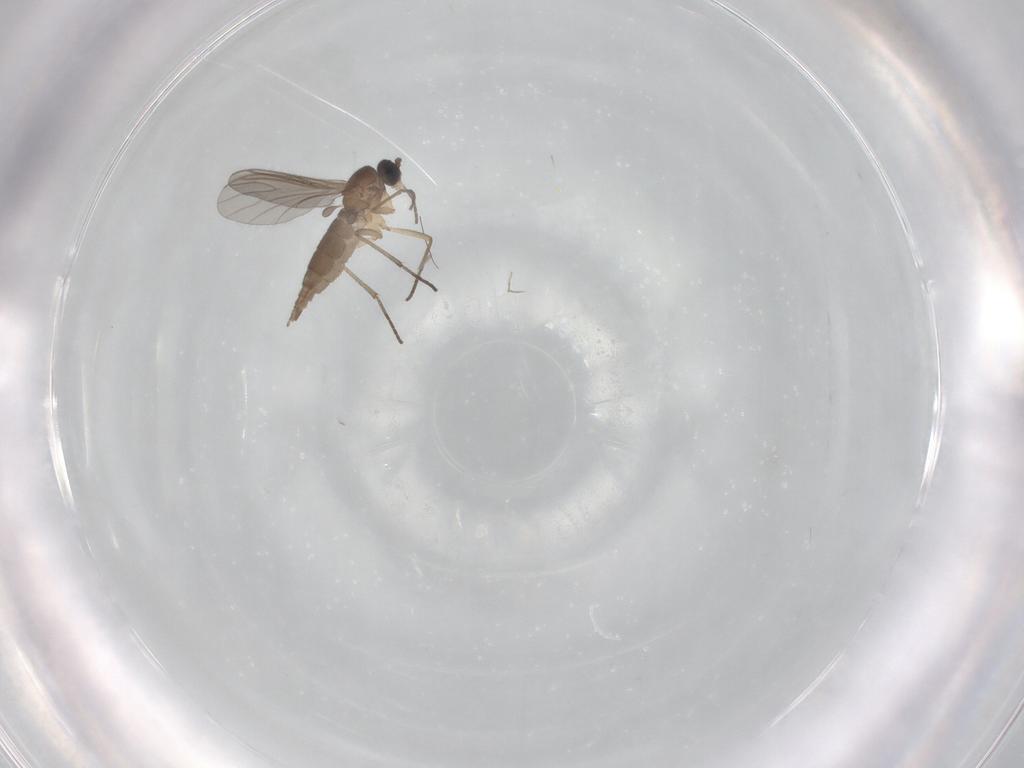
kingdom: Animalia
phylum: Arthropoda
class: Insecta
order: Diptera
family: Sciaridae
